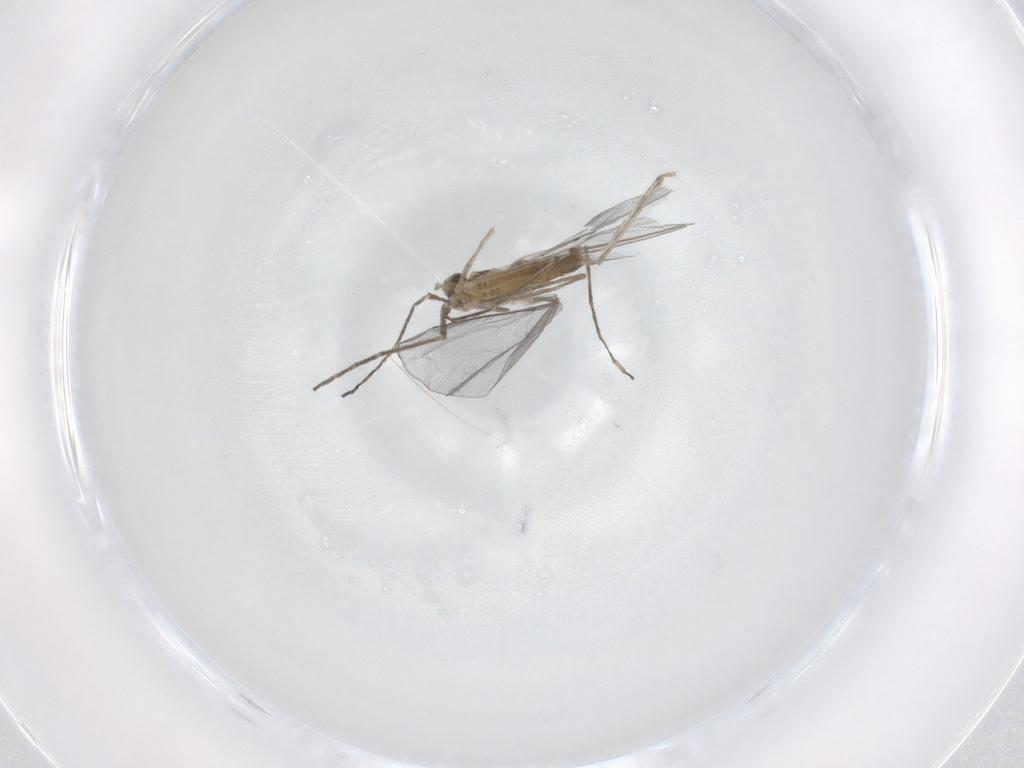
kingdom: Animalia
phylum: Arthropoda
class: Insecta
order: Diptera
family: Cecidomyiidae
